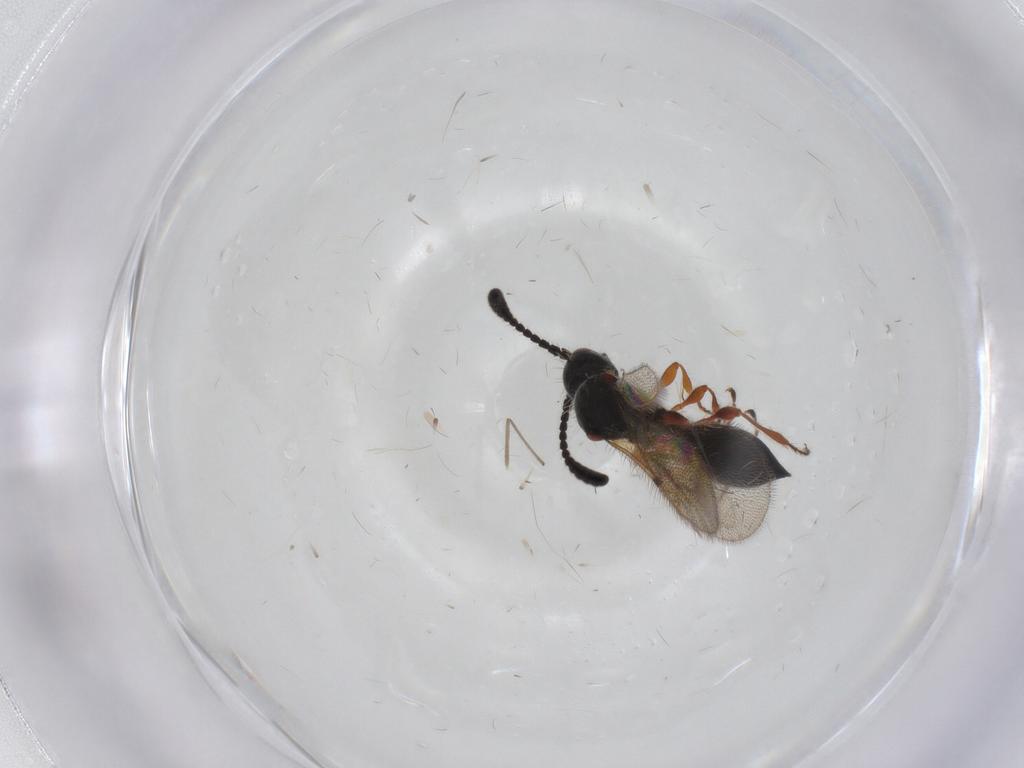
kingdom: Animalia
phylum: Arthropoda
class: Insecta
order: Hymenoptera
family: Diapriidae
